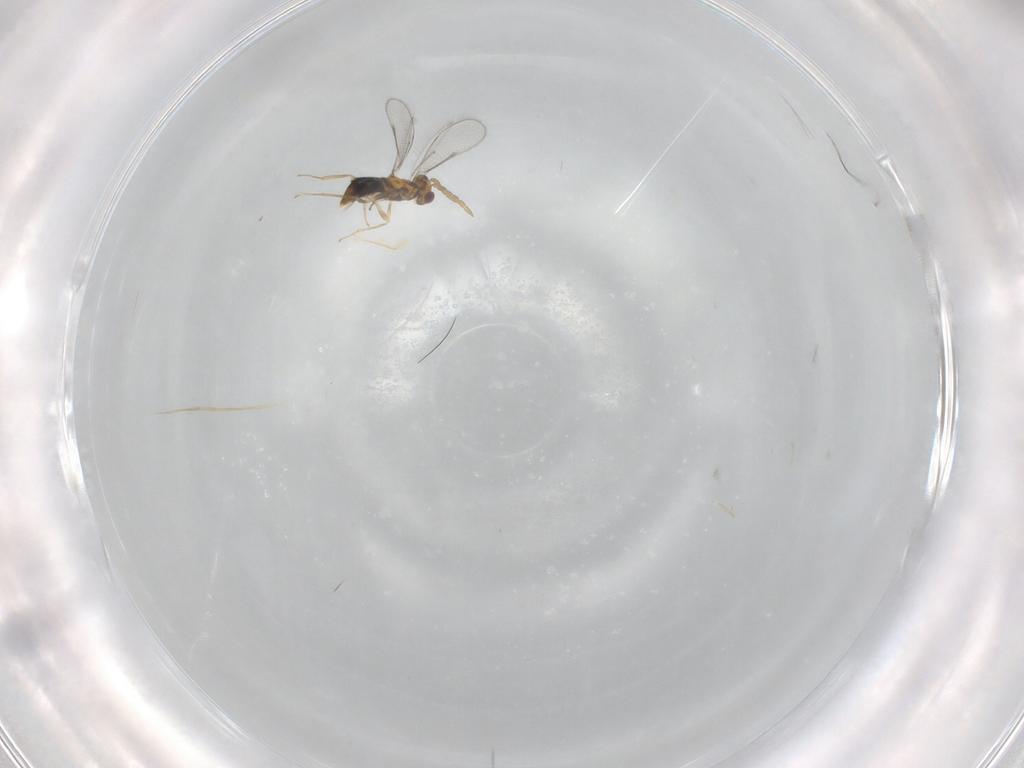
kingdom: Animalia
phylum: Arthropoda
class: Insecta
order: Hymenoptera
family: Aphelinidae
